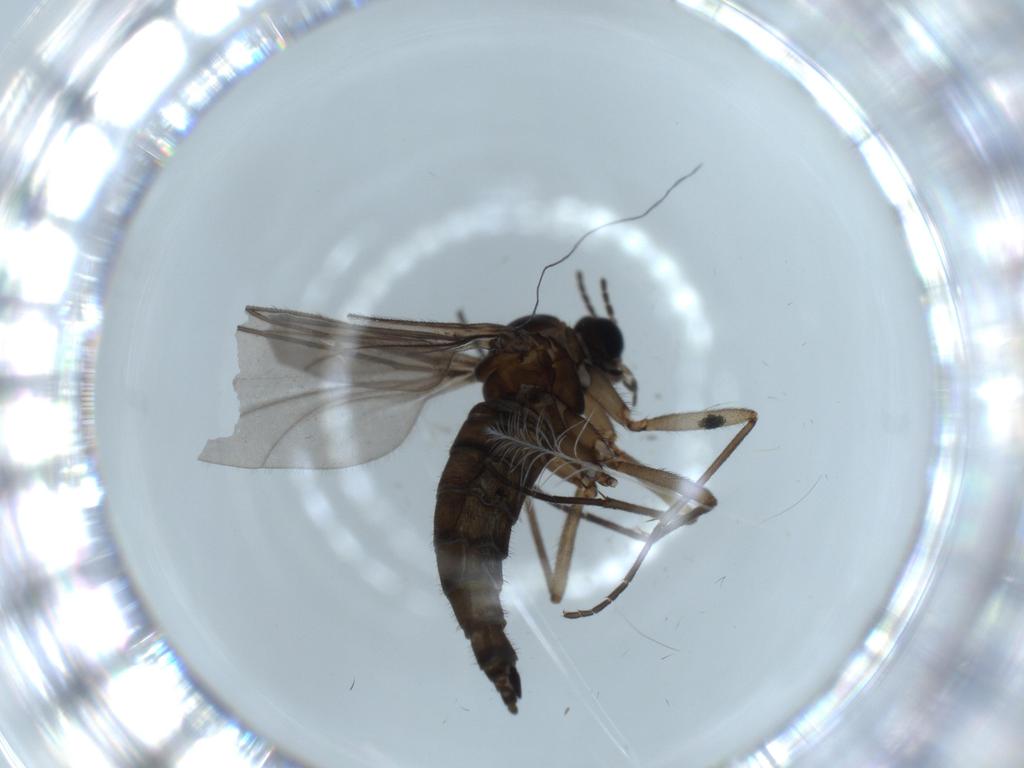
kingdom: Animalia
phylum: Arthropoda
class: Insecta
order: Diptera
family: Sciaridae
